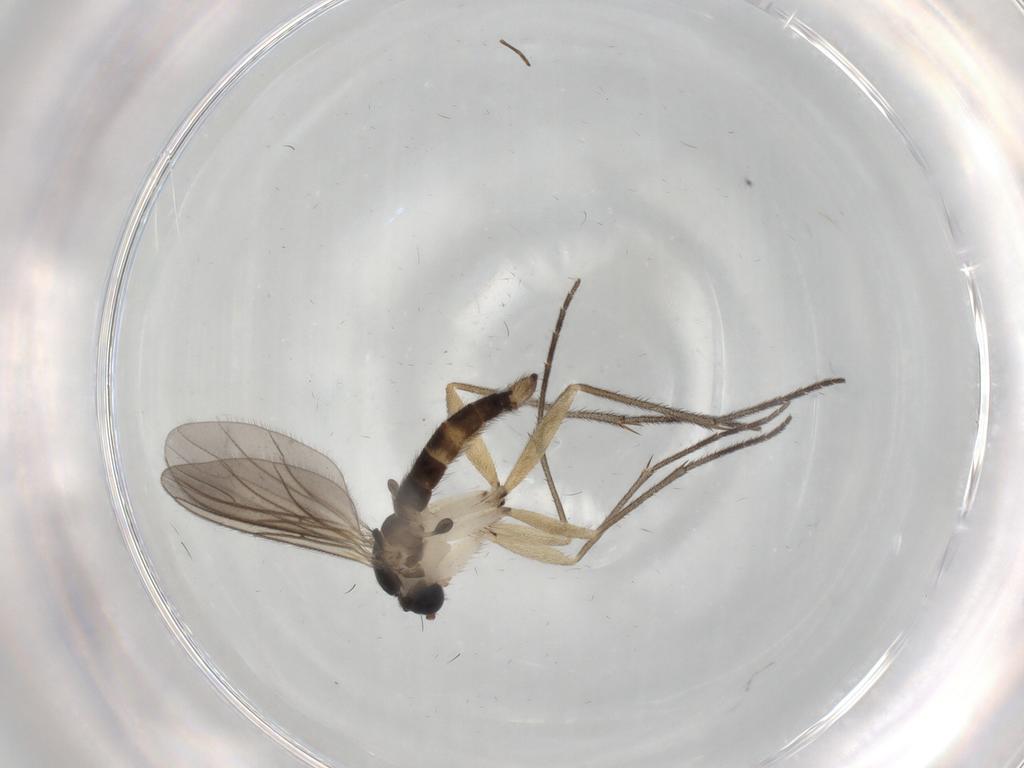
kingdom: Animalia
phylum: Arthropoda
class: Insecta
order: Diptera
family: Sciaridae
